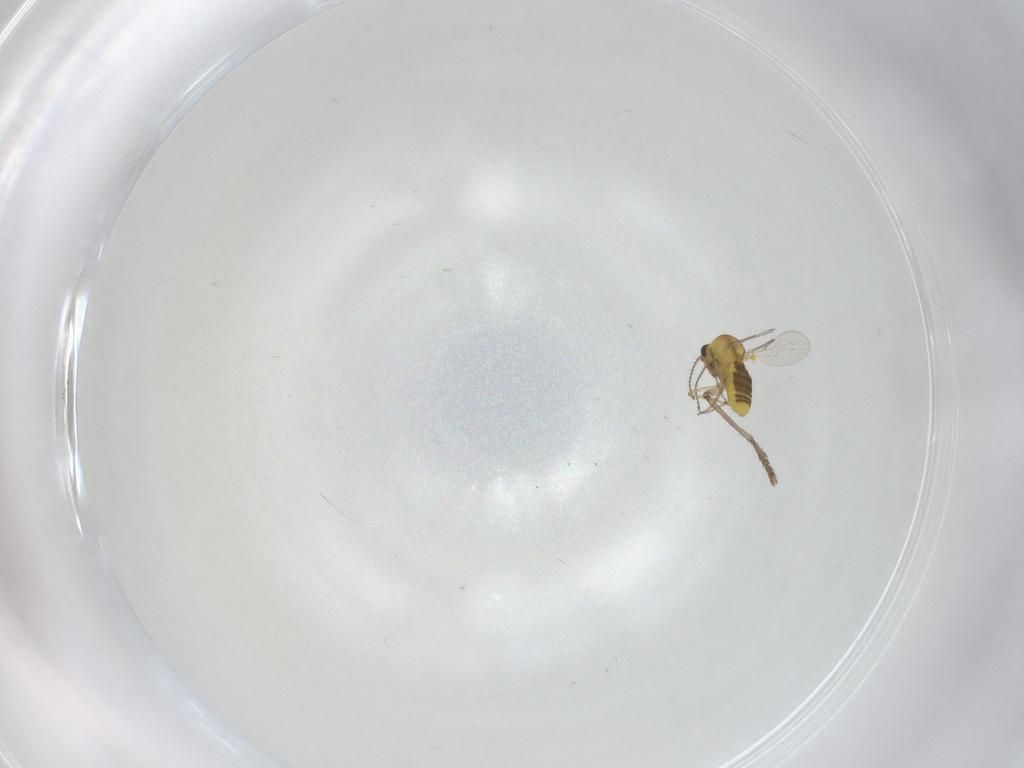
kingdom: Animalia
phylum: Arthropoda
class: Insecta
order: Diptera
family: Psychodidae
